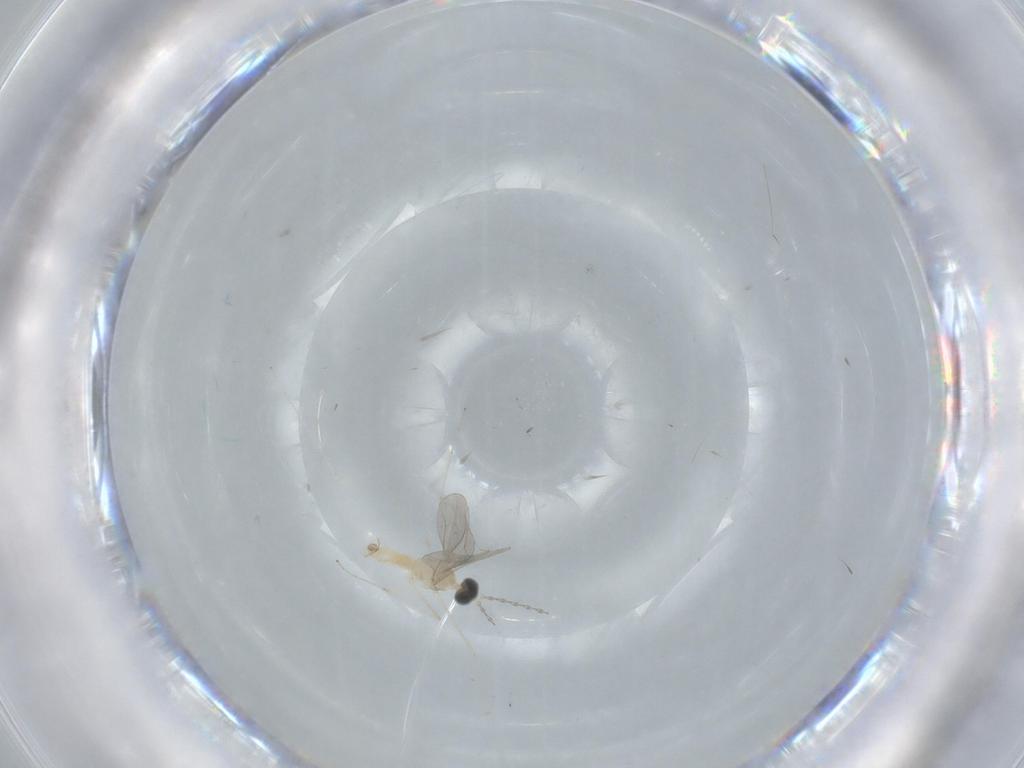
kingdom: Animalia
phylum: Arthropoda
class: Insecta
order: Diptera
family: Cecidomyiidae
